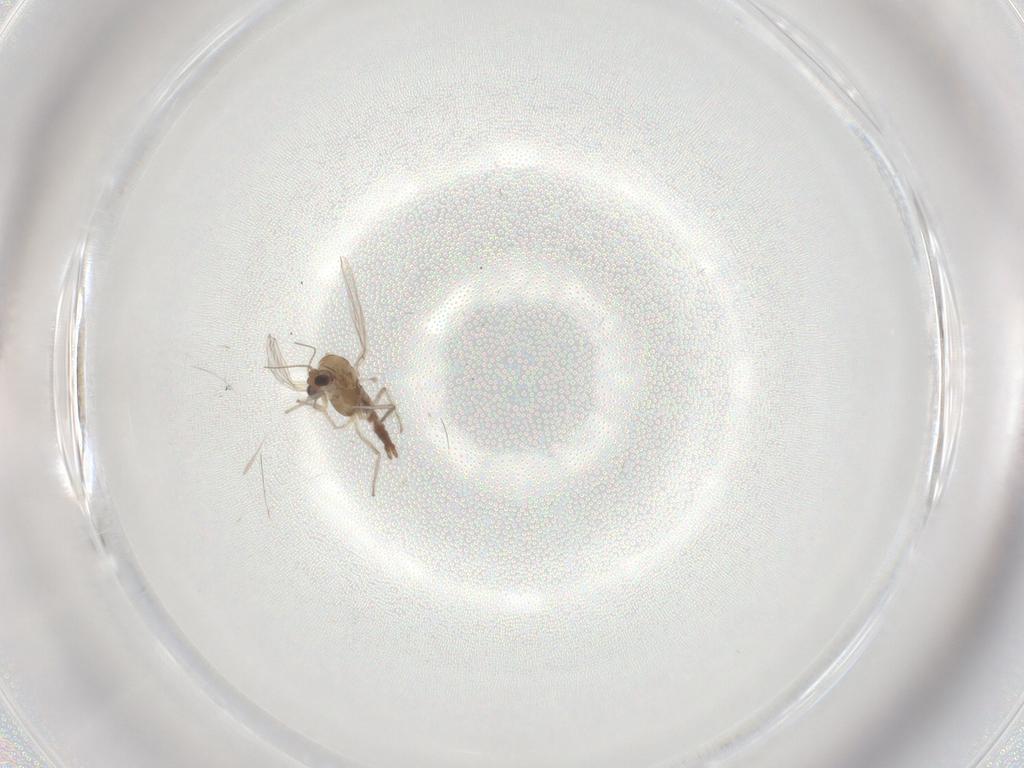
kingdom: Animalia
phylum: Arthropoda
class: Insecta
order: Diptera
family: Chironomidae
